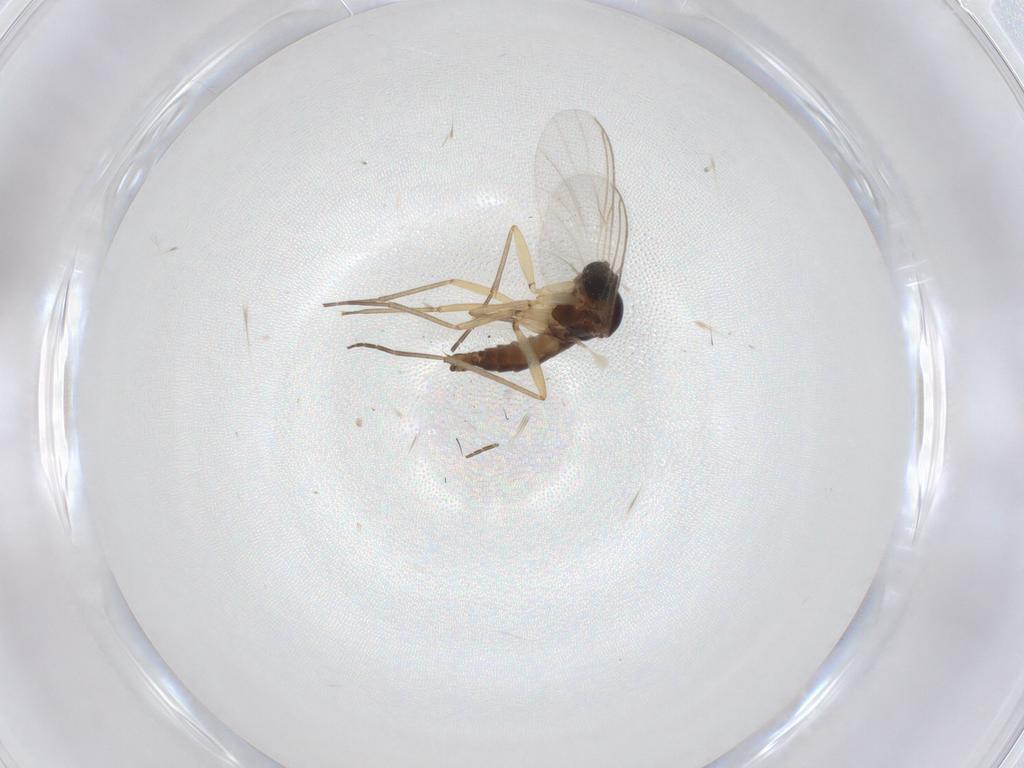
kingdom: Animalia
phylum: Arthropoda
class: Insecta
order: Diptera
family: Sciaridae
